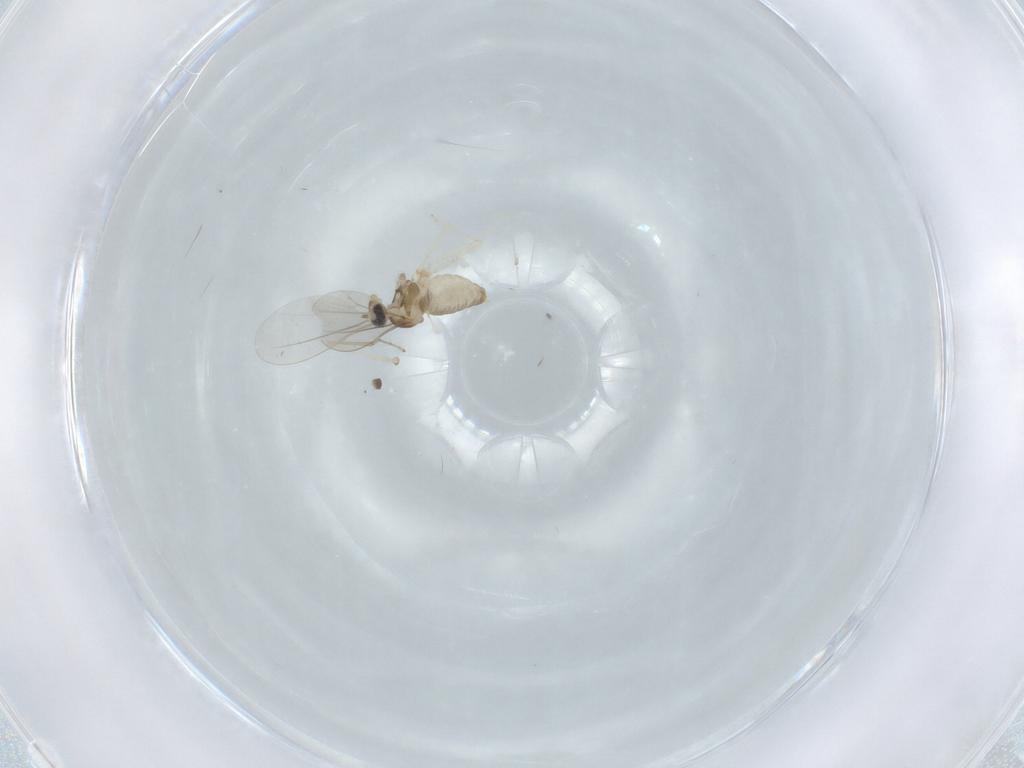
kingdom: Animalia
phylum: Arthropoda
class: Insecta
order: Diptera
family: Cecidomyiidae
